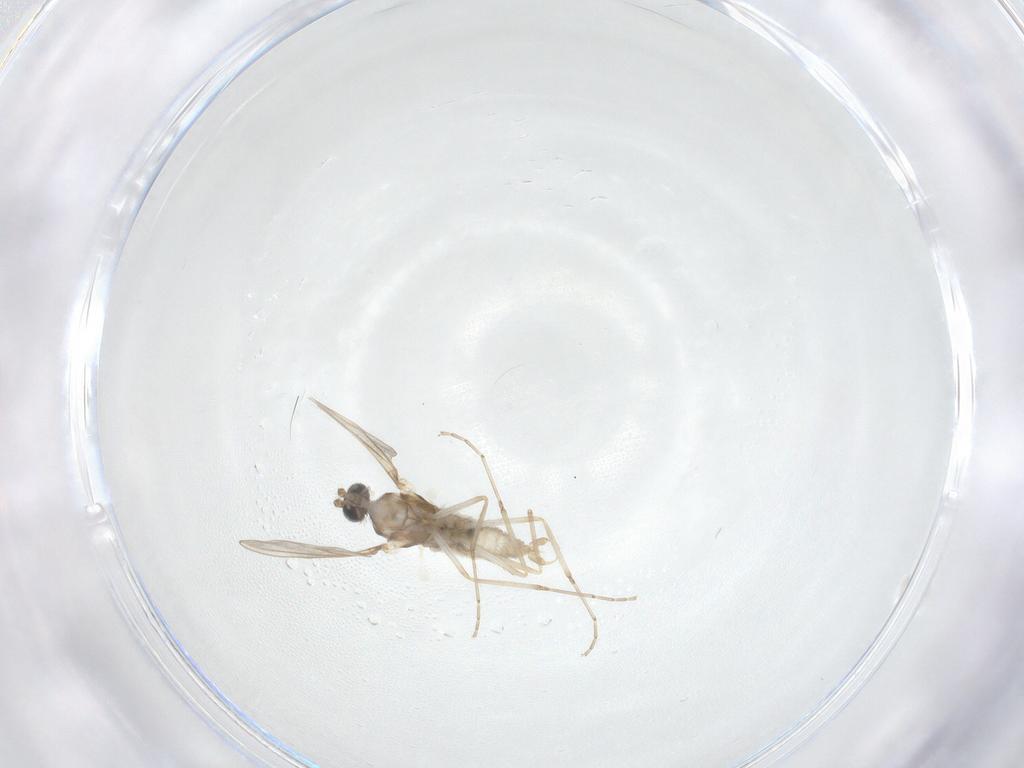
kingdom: Animalia
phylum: Arthropoda
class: Insecta
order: Diptera
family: Cecidomyiidae
